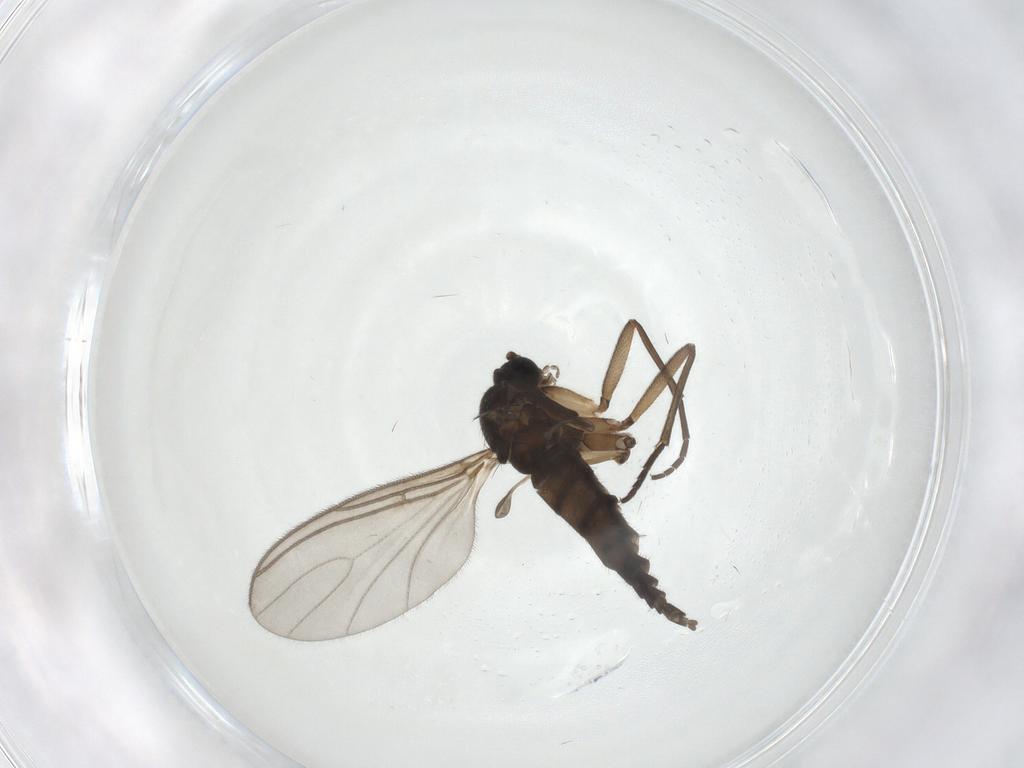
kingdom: Animalia
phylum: Arthropoda
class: Insecta
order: Diptera
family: Sciaridae
